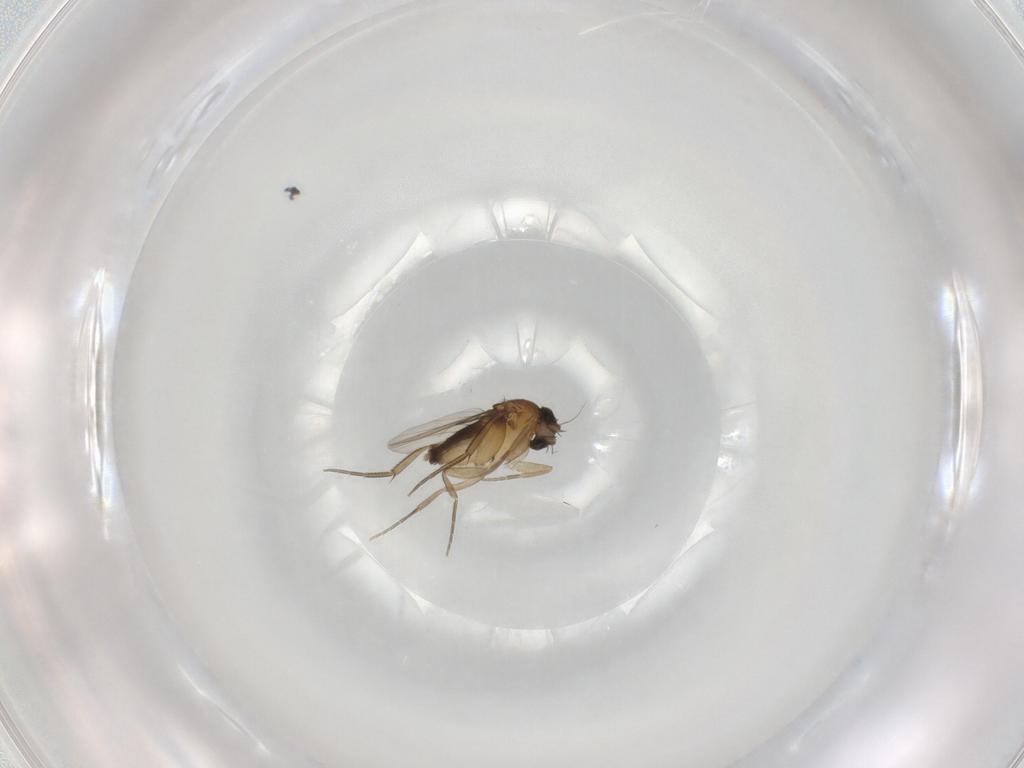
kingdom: Animalia
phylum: Arthropoda
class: Insecta
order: Diptera
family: Phoridae
